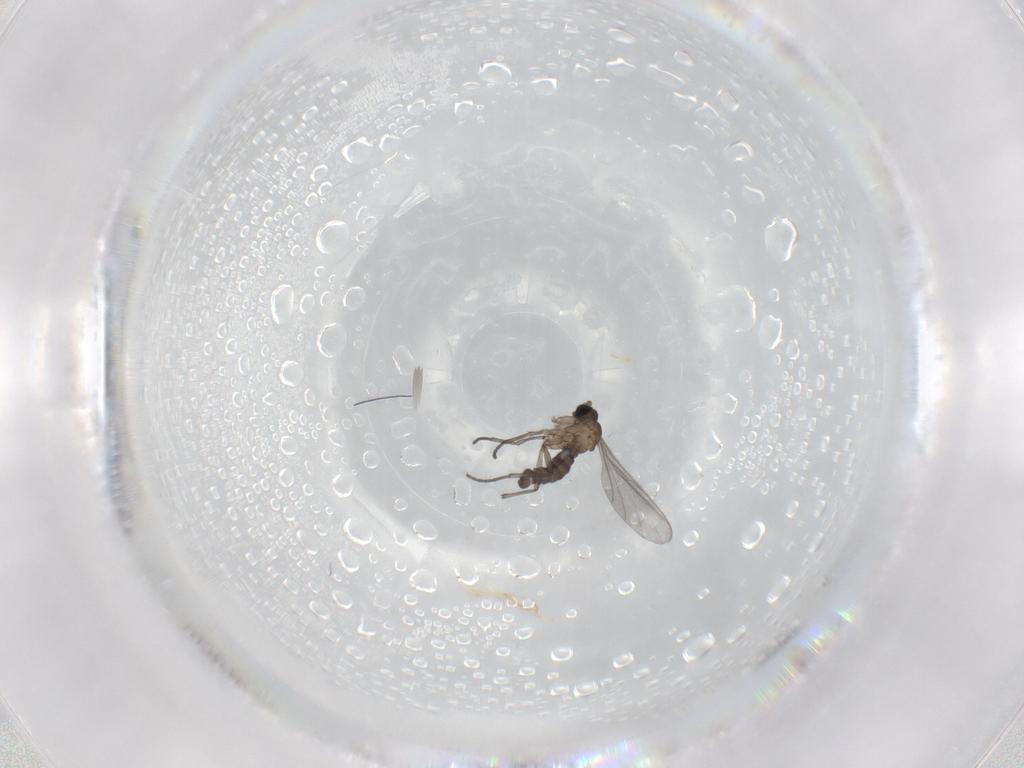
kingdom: Animalia
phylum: Arthropoda
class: Insecta
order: Diptera
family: Sciaridae
